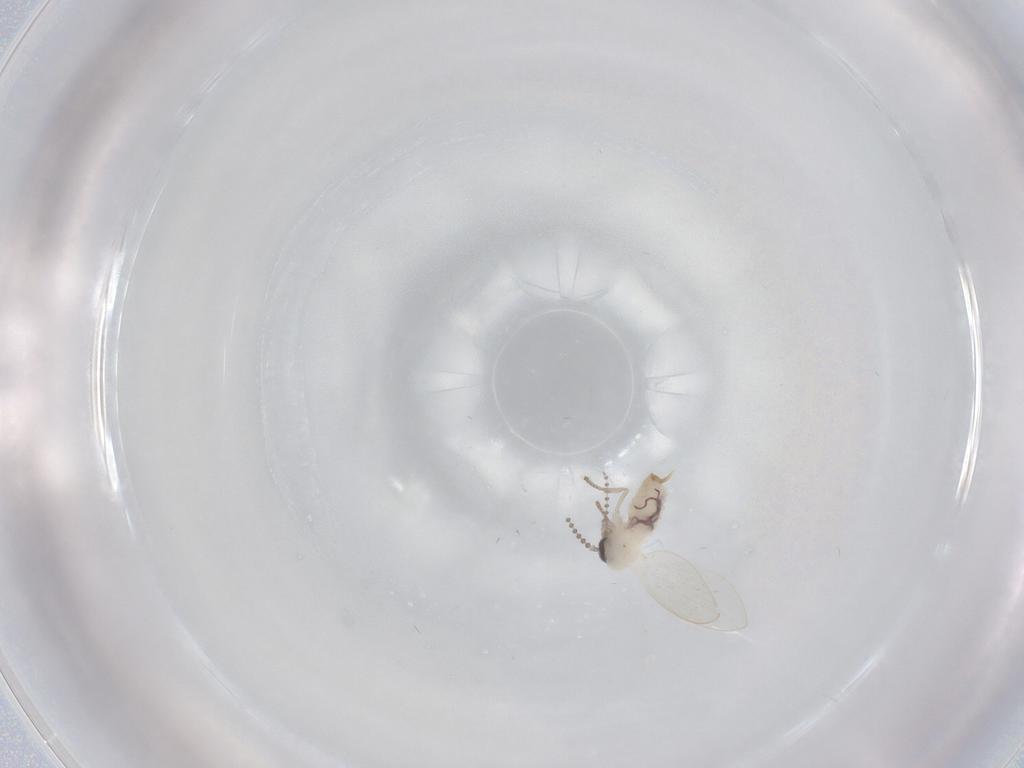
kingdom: Animalia
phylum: Arthropoda
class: Insecta
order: Diptera
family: Psychodidae
